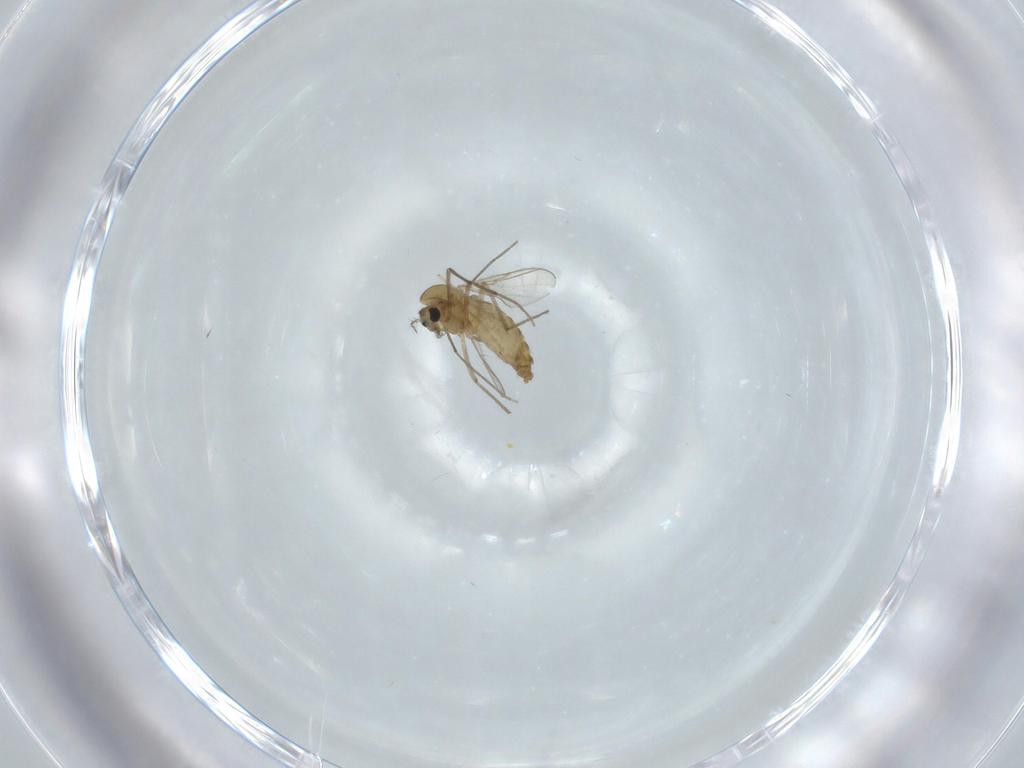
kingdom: Animalia
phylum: Arthropoda
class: Insecta
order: Diptera
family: Chironomidae
